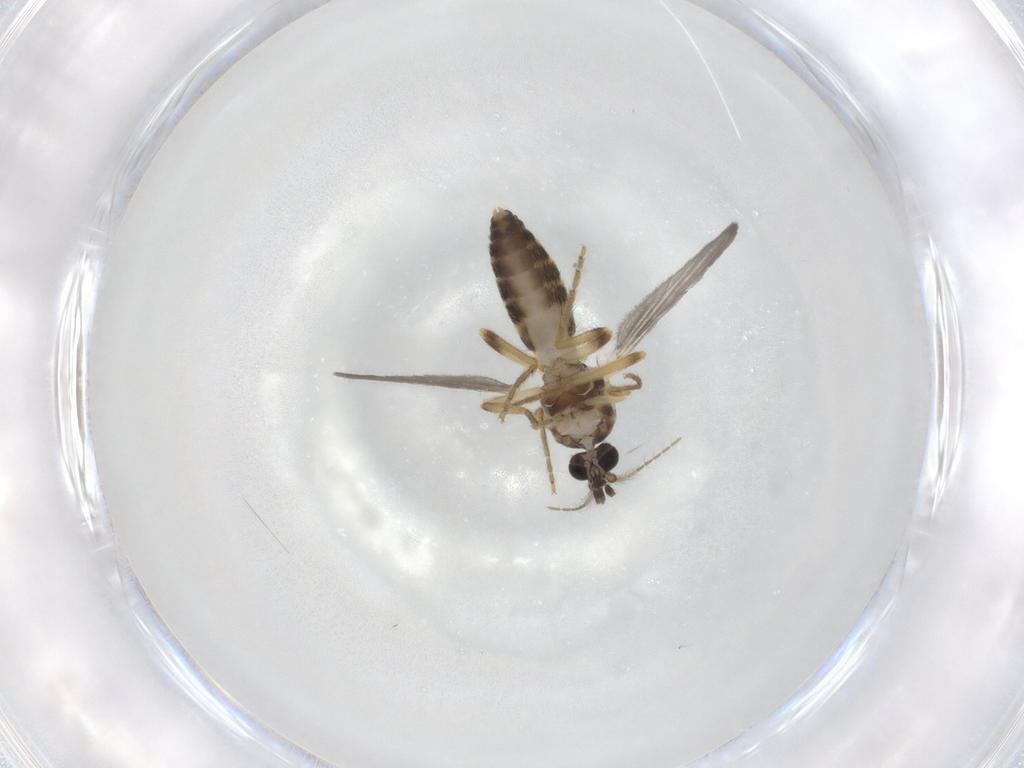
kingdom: Animalia
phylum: Arthropoda
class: Insecta
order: Diptera
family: Ceratopogonidae
